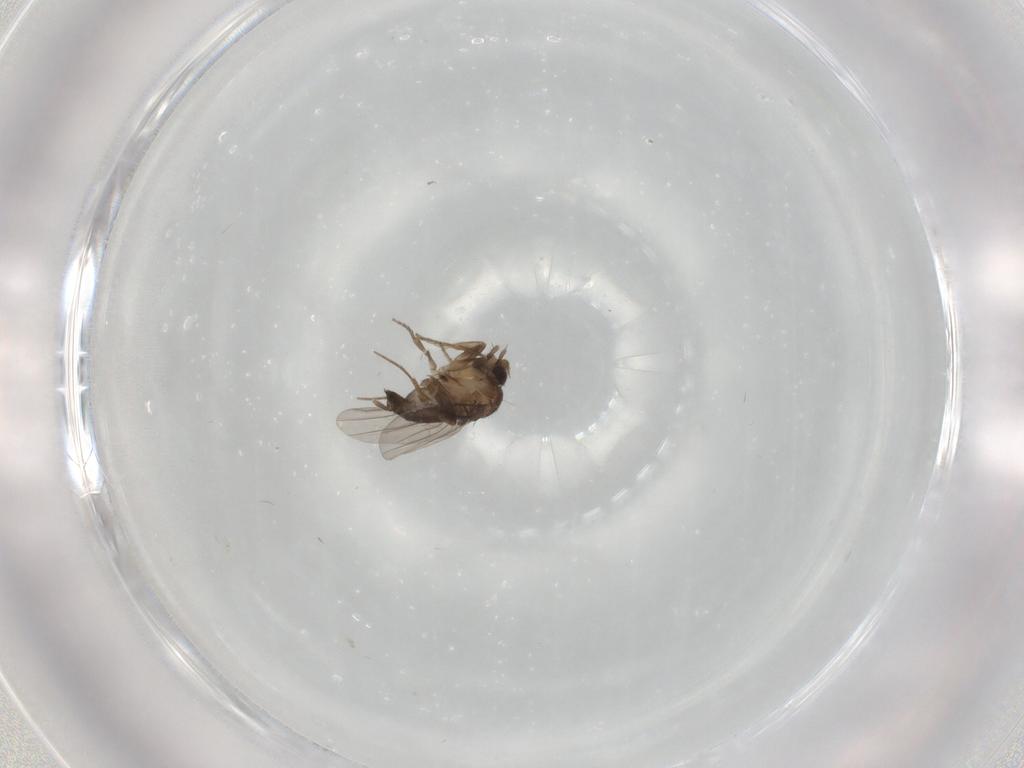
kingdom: Animalia
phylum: Arthropoda
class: Insecta
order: Diptera
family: Phoridae
